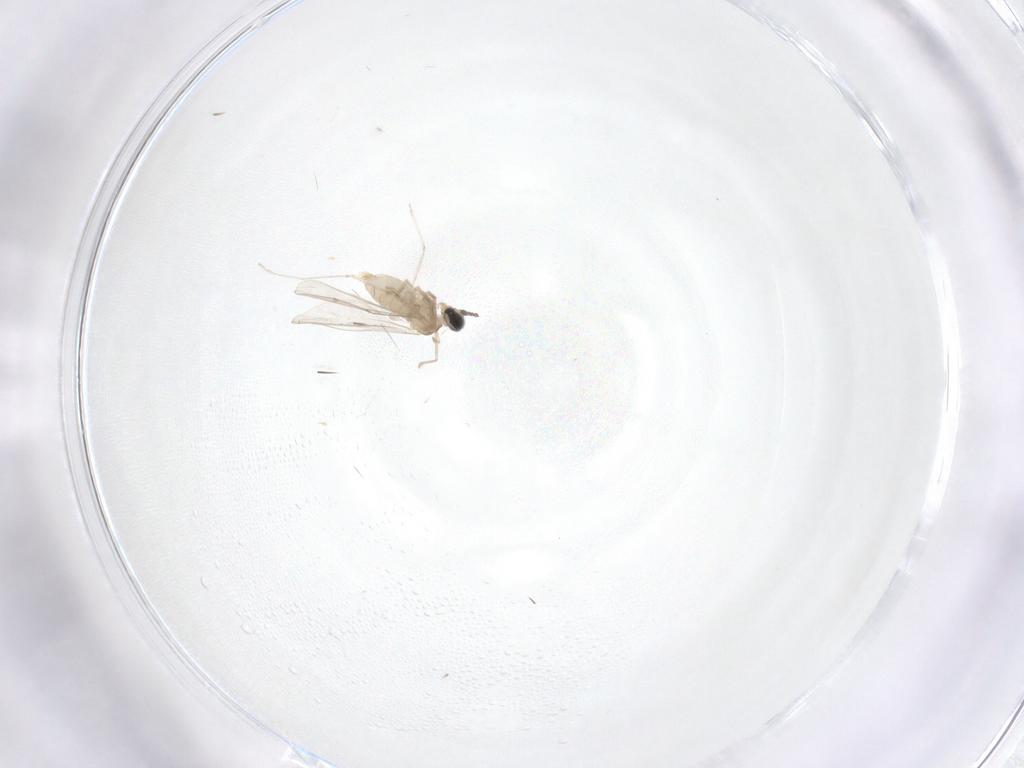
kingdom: Animalia
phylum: Arthropoda
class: Insecta
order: Diptera
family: Cecidomyiidae
